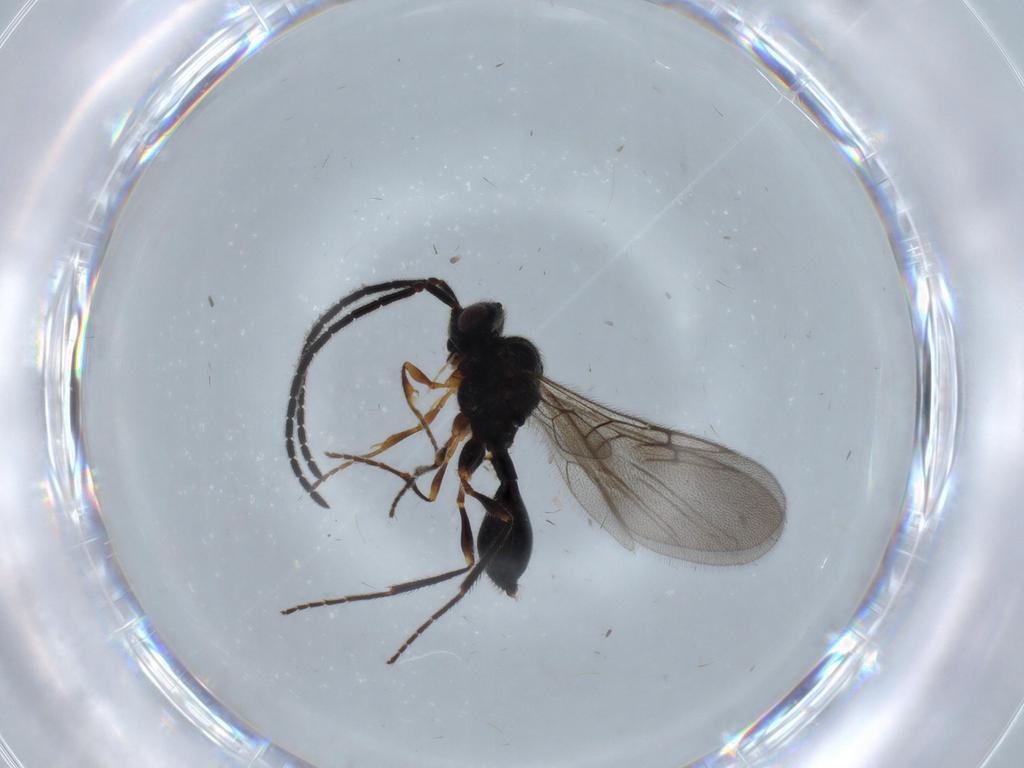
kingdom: Animalia
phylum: Arthropoda
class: Insecta
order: Hymenoptera
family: Diapriidae
